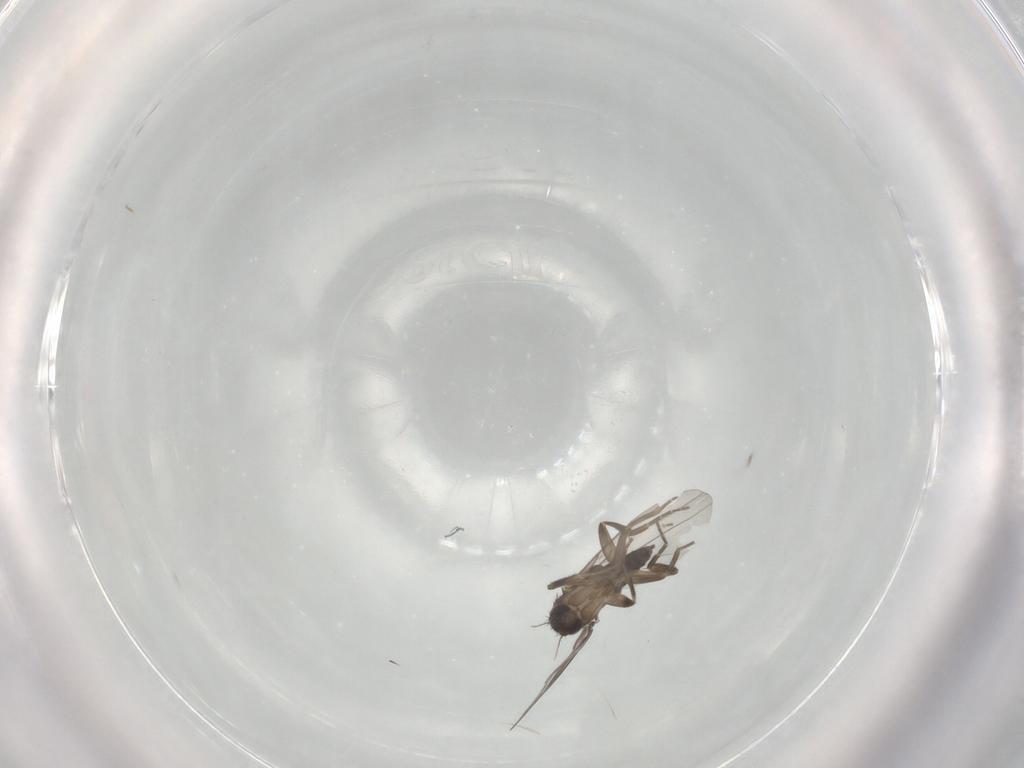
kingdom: Animalia
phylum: Arthropoda
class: Insecta
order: Diptera
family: Phoridae
